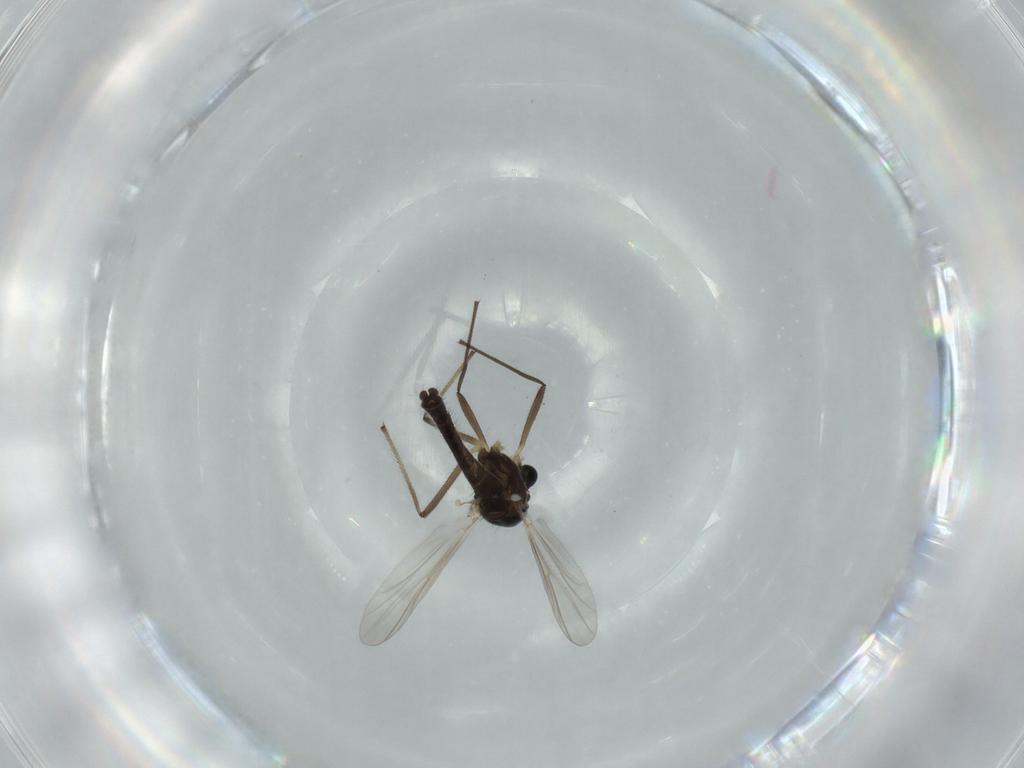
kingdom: Animalia
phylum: Arthropoda
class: Insecta
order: Diptera
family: Chironomidae
